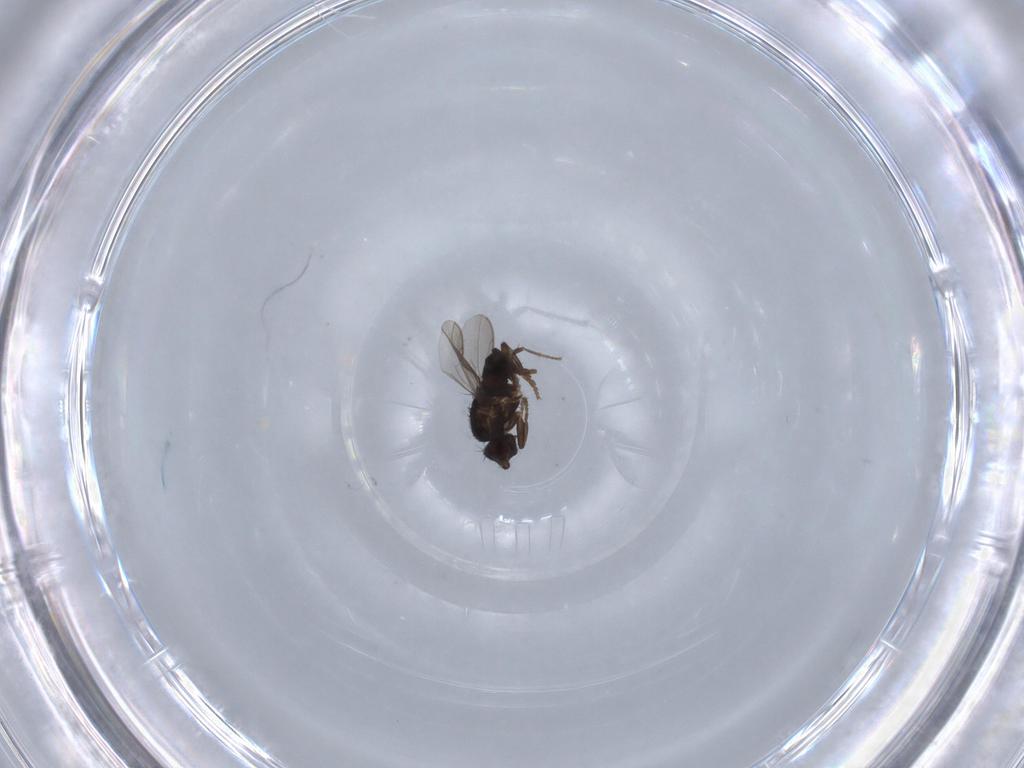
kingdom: Animalia
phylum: Arthropoda
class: Insecta
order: Diptera
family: Sphaeroceridae
